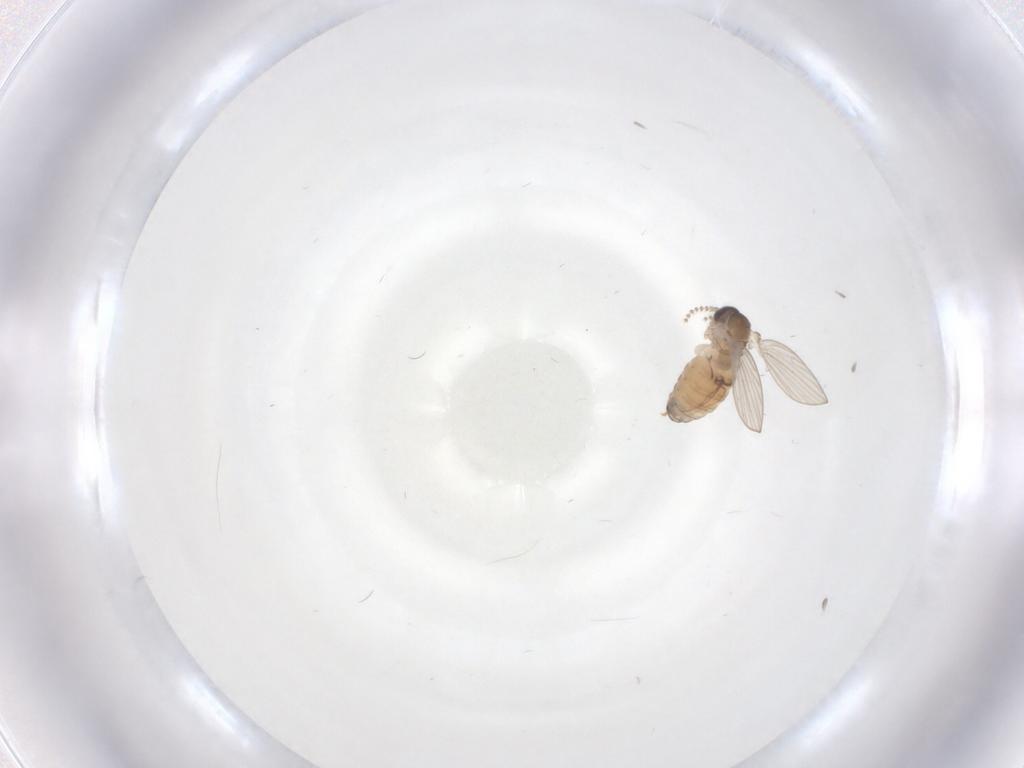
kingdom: Animalia
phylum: Arthropoda
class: Insecta
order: Diptera
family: Psychodidae
